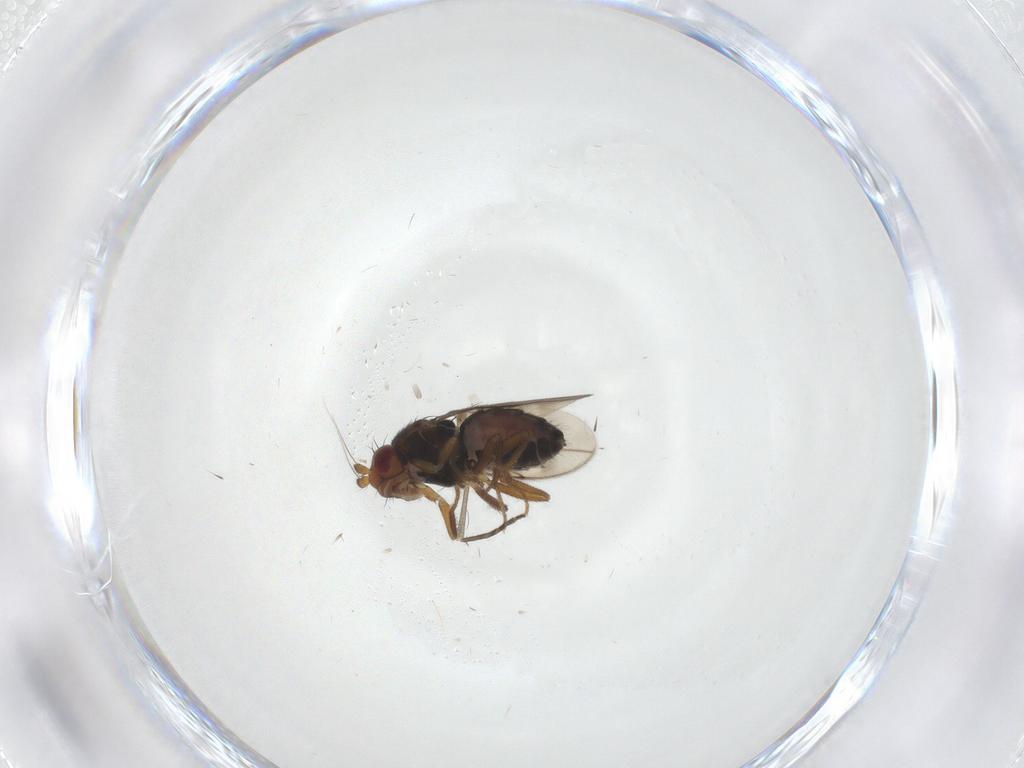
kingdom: Animalia
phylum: Arthropoda
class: Insecta
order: Diptera
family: Sphaeroceridae
